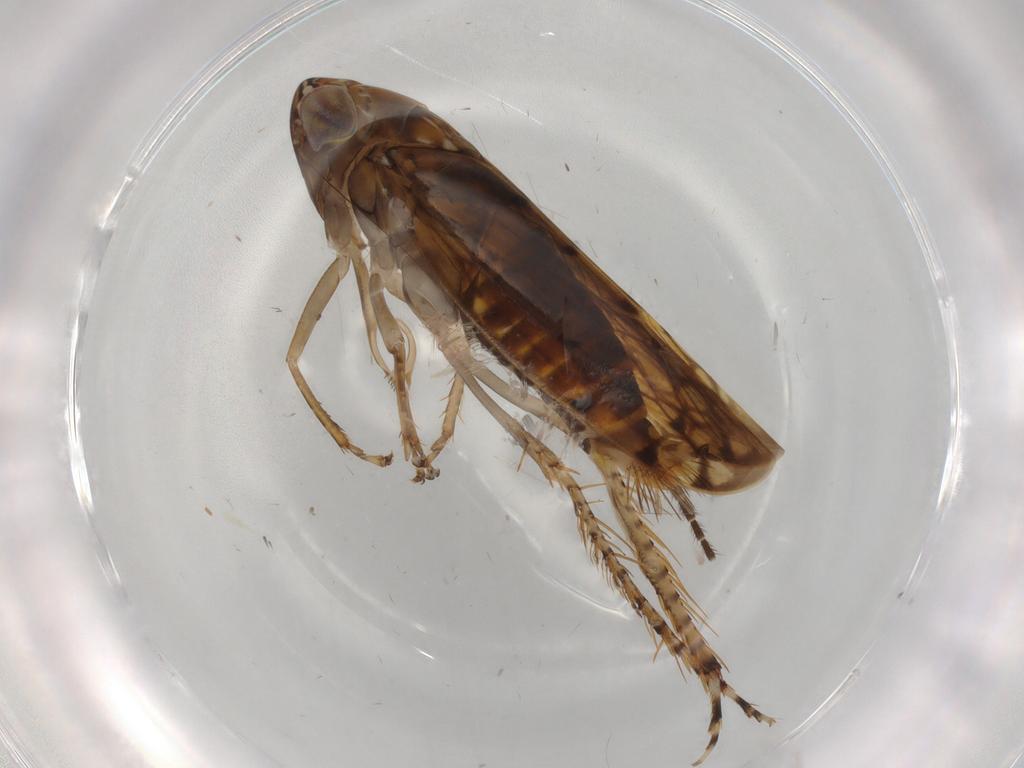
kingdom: Animalia
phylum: Arthropoda
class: Insecta
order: Hemiptera
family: Cicadellidae
